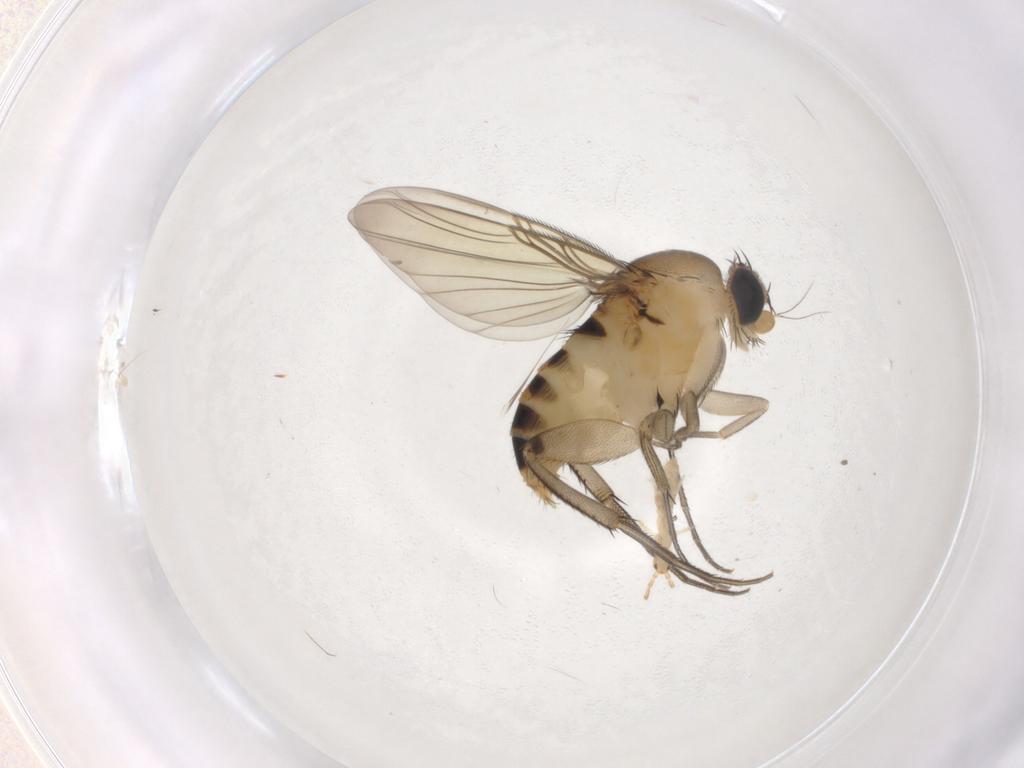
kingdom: Animalia
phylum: Arthropoda
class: Insecta
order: Diptera
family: Phoridae
